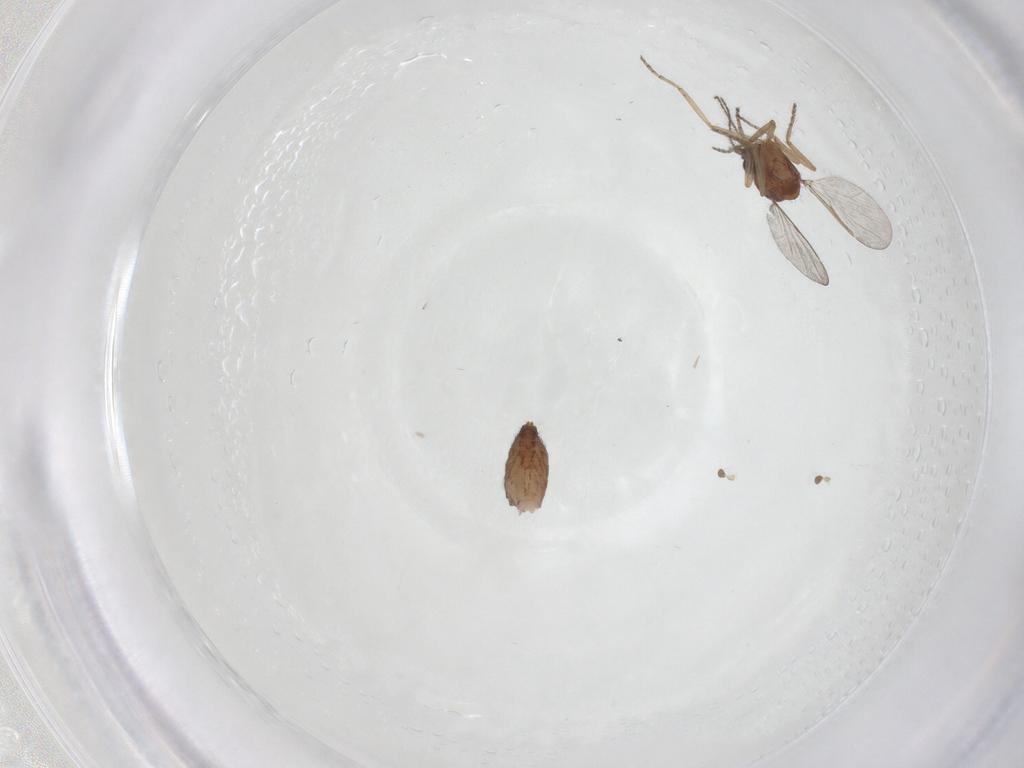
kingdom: Animalia
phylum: Arthropoda
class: Insecta
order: Diptera
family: Ceratopogonidae
